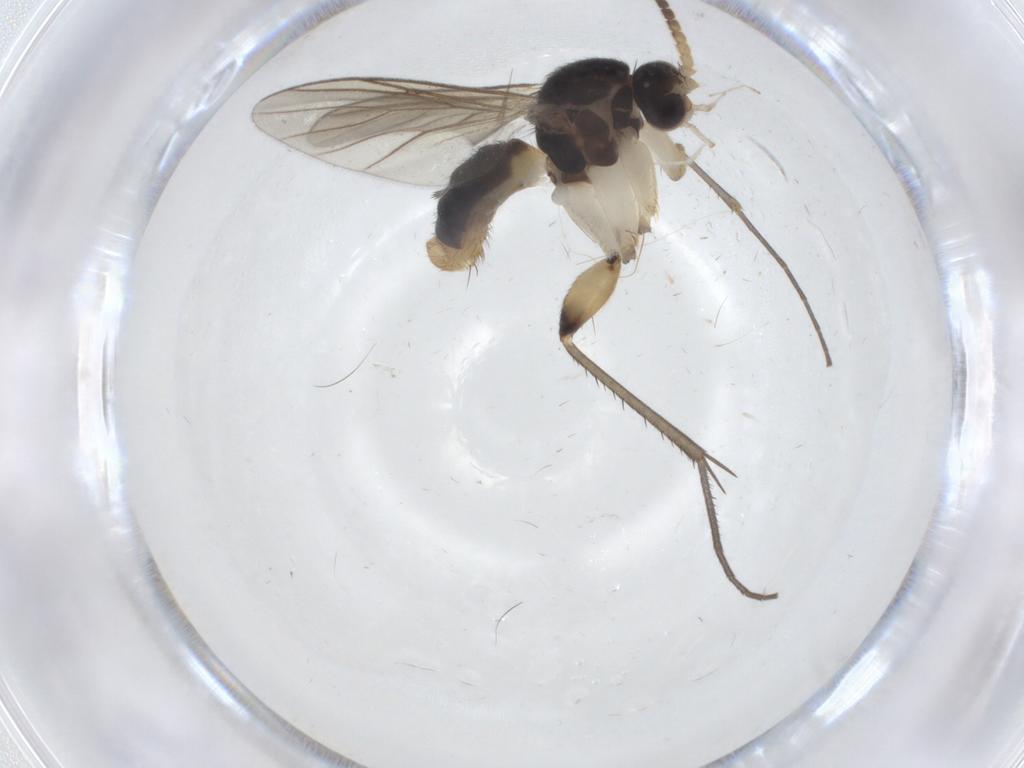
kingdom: Animalia
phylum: Arthropoda
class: Insecta
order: Diptera
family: Mycetophilidae
